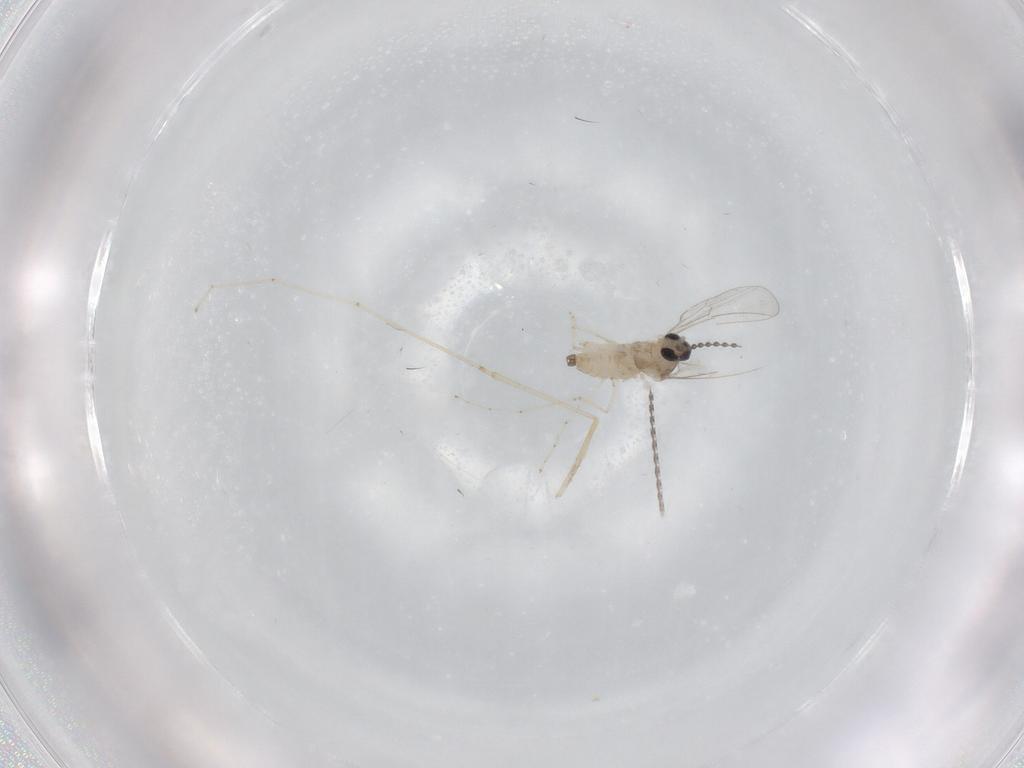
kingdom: Animalia
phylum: Arthropoda
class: Insecta
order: Diptera
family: Cecidomyiidae
